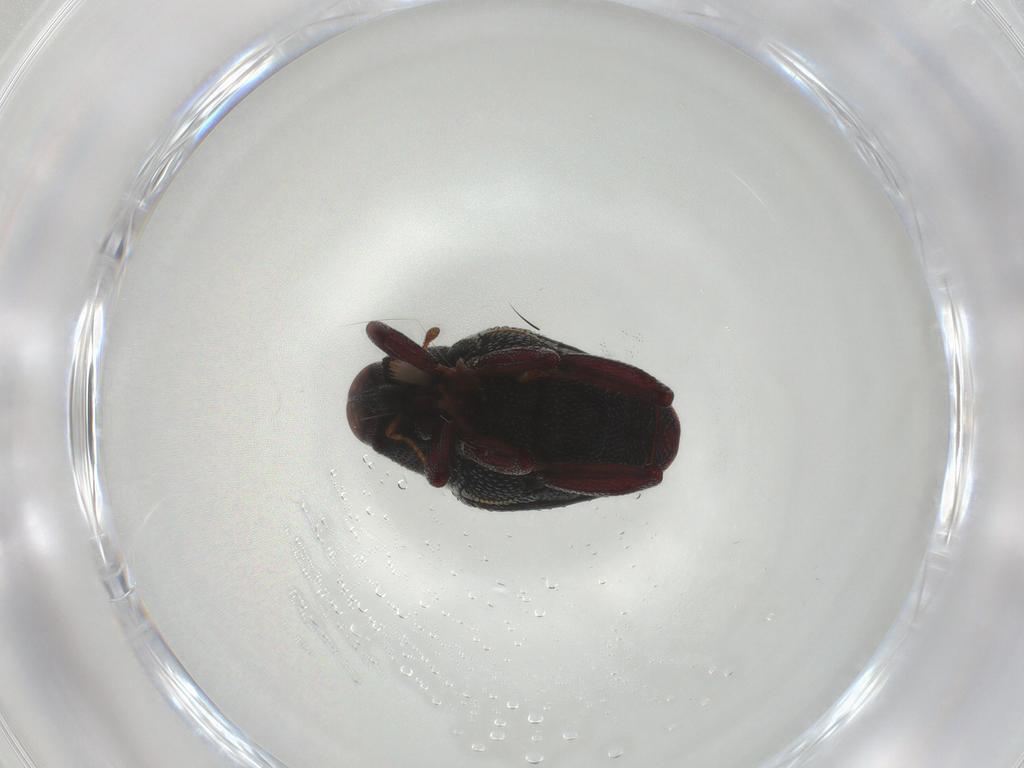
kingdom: Animalia
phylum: Arthropoda
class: Insecta
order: Coleoptera
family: Curculionidae
